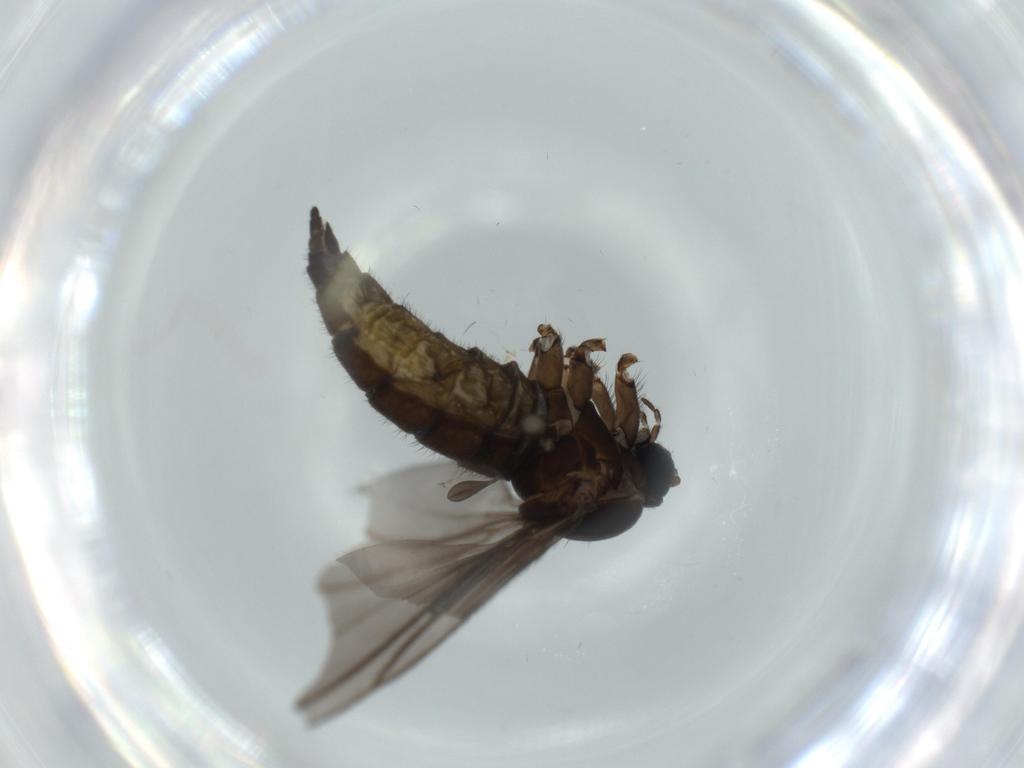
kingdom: Animalia
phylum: Arthropoda
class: Insecta
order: Diptera
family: Sciaridae
